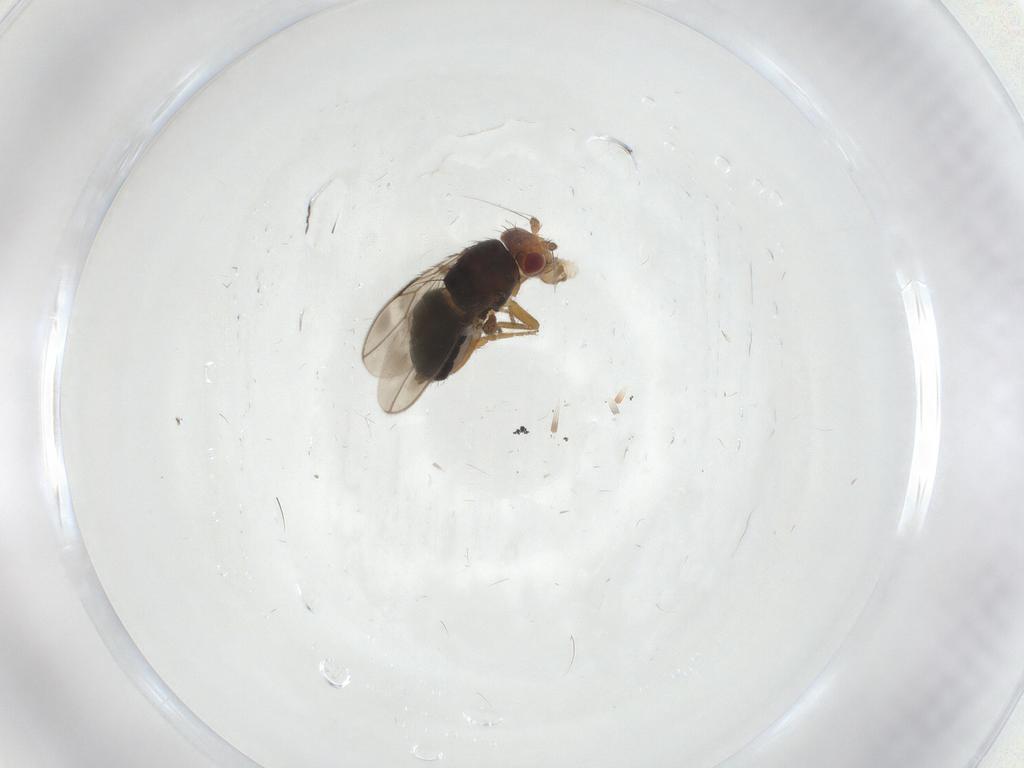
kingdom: Animalia
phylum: Arthropoda
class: Insecta
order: Diptera
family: Sphaeroceridae
